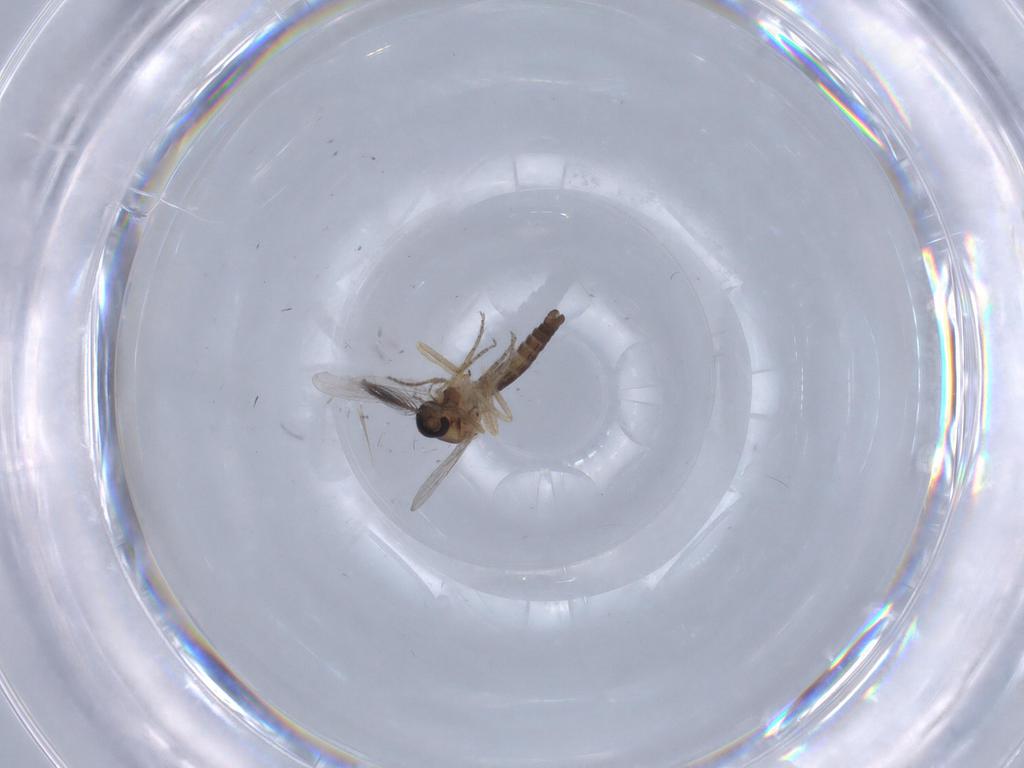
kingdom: Animalia
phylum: Arthropoda
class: Insecta
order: Diptera
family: Ceratopogonidae
